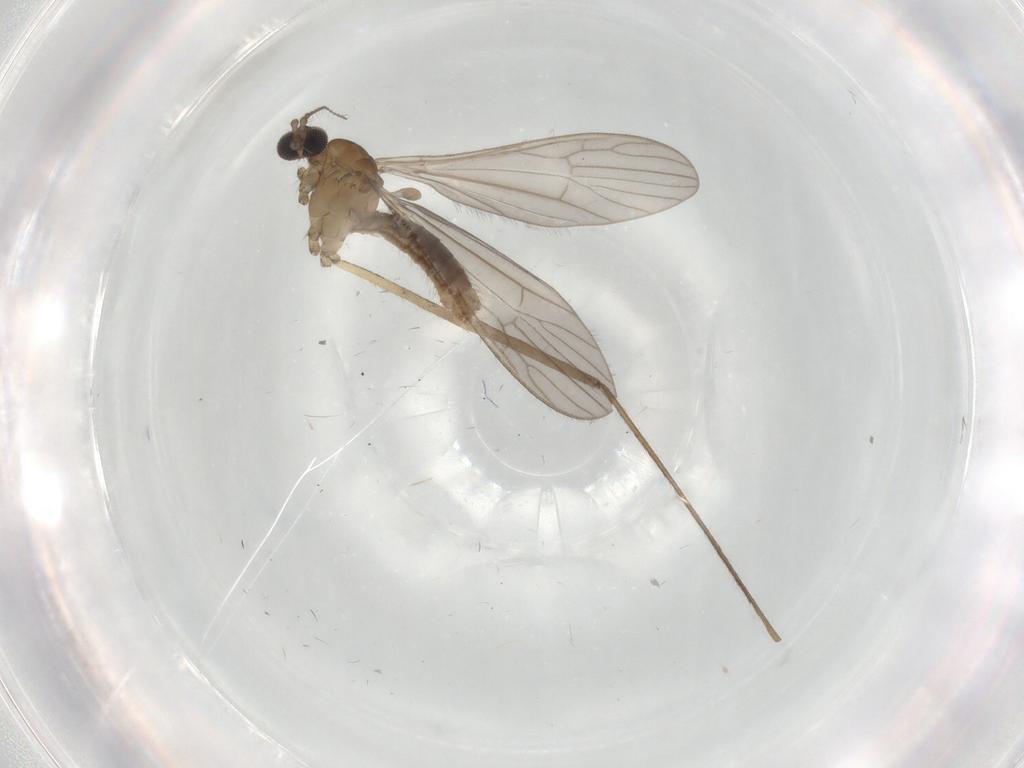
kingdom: Animalia
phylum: Arthropoda
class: Insecta
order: Diptera
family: Limoniidae
